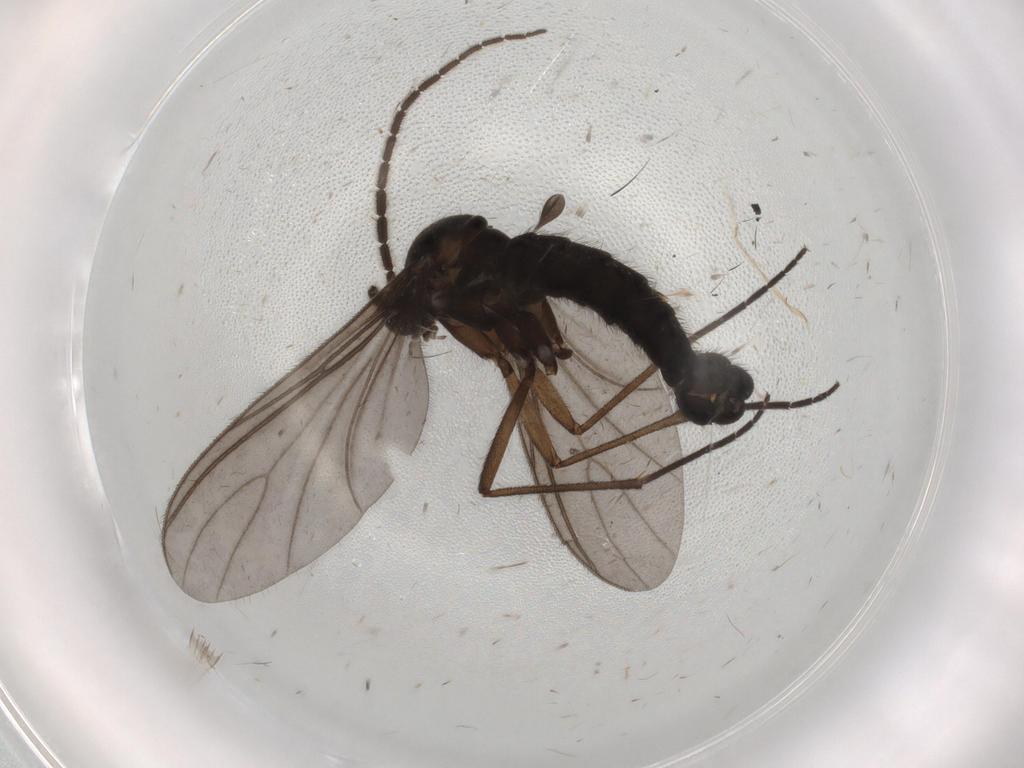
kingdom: Animalia
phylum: Arthropoda
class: Insecta
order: Diptera
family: Sciaridae
